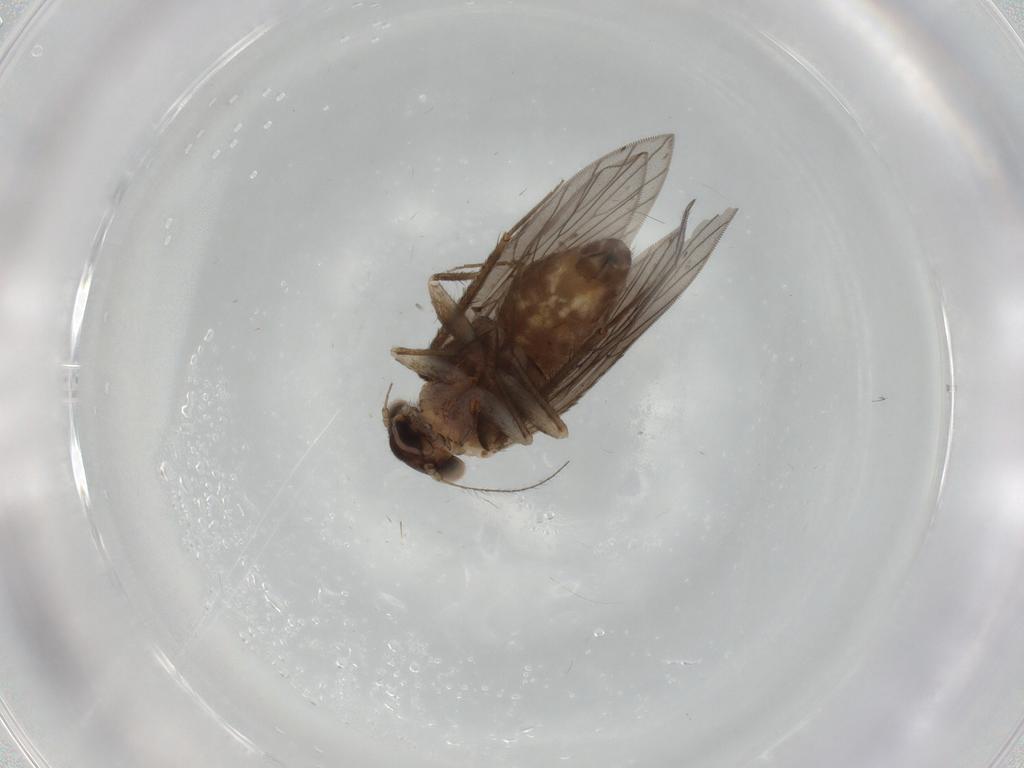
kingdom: Animalia
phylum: Arthropoda
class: Insecta
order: Psocodea
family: Lepidopsocidae
